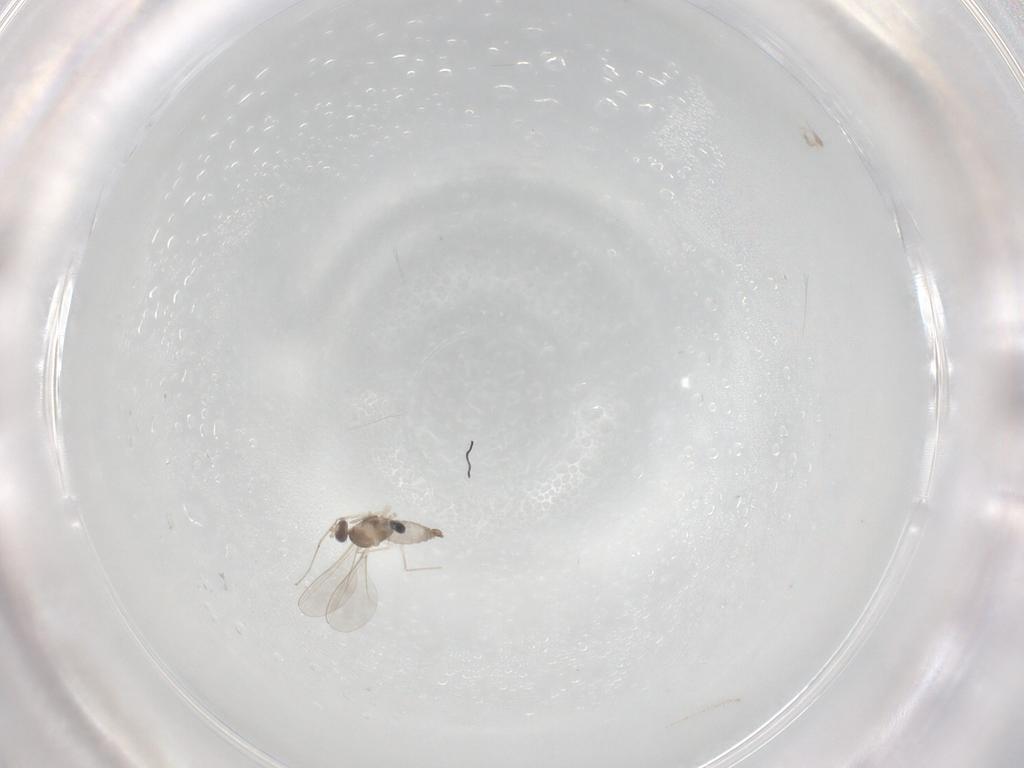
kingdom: Animalia
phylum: Arthropoda
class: Insecta
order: Diptera
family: Cecidomyiidae
